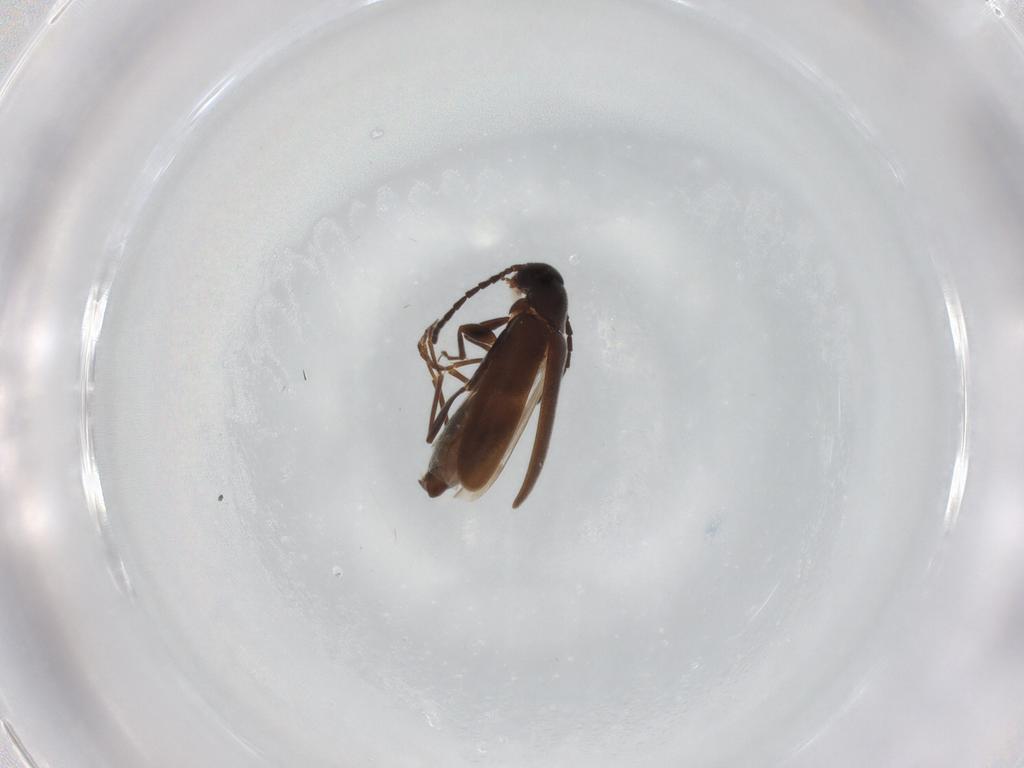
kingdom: Animalia
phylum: Arthropoda
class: Insecta
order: Coleoptera
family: Scraptiidae
